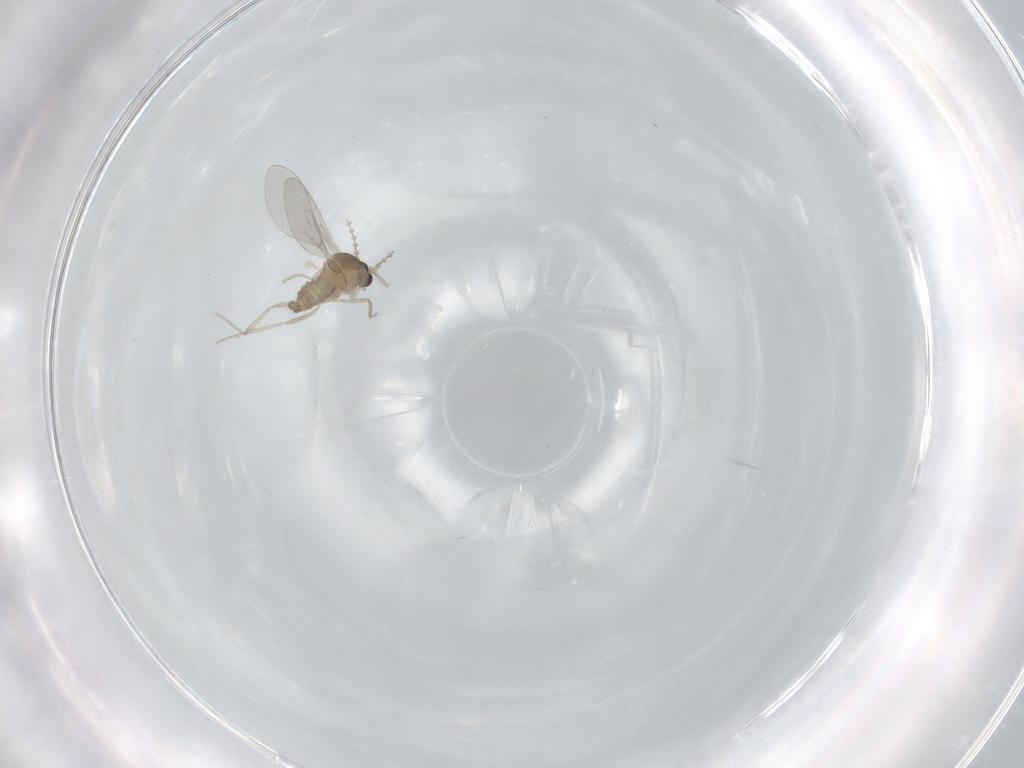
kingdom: Animalia
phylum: Arthropoda
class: Insecta
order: Diptera
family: Cecidomyiidae
